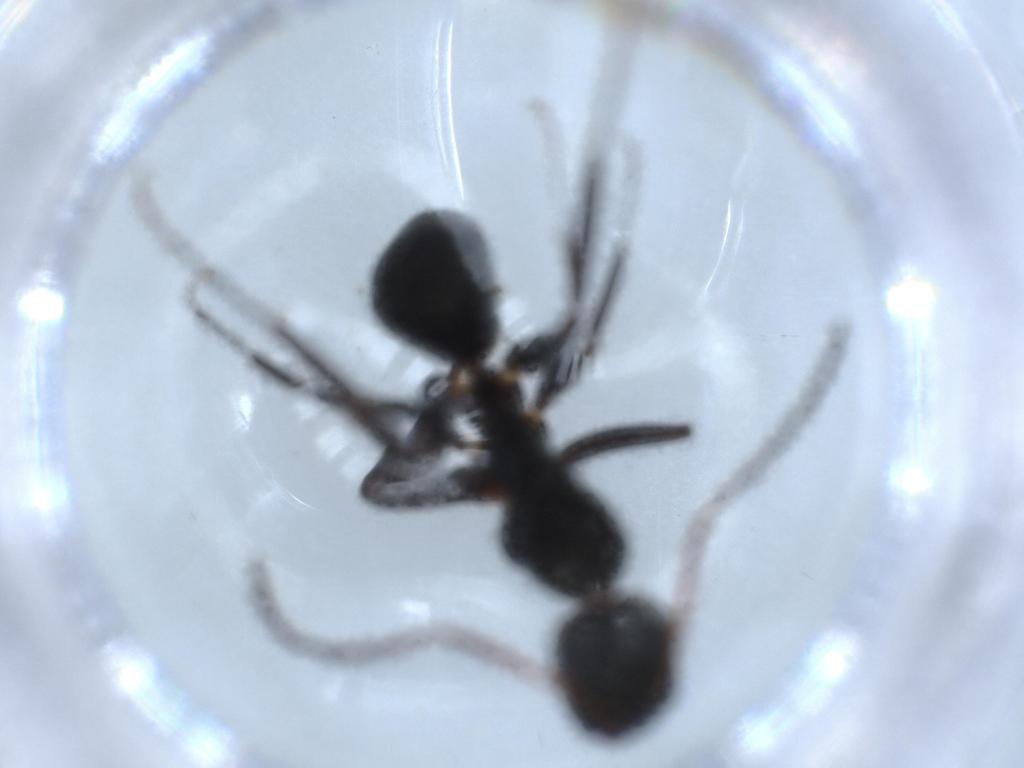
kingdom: Animalia
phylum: Arthropoda
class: Insecta
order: Hymenoptera
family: Formicidae
